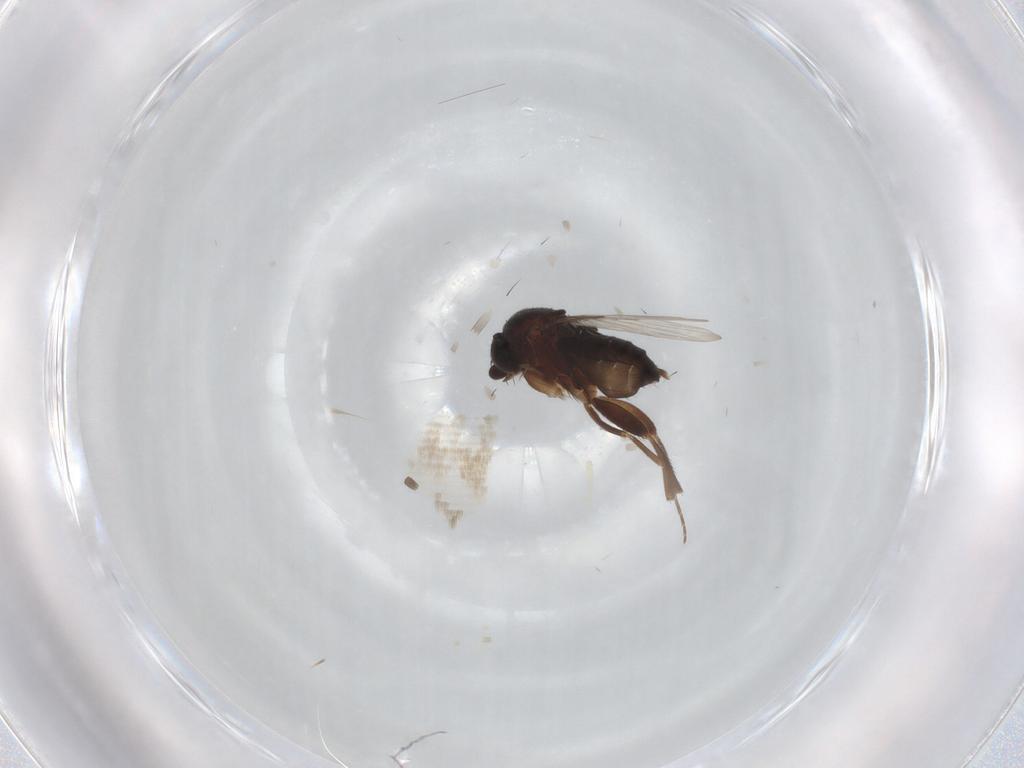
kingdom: Animalia
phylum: Arthropoda
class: Insecta
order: Diptera
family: Phoridae
